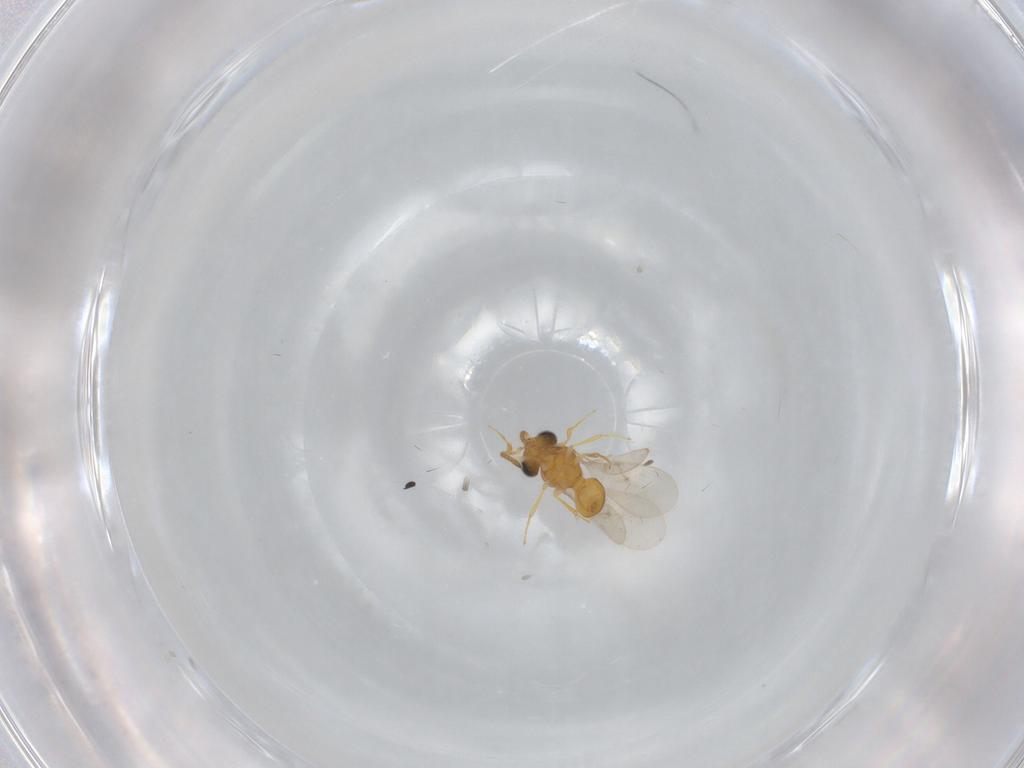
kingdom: Animalia
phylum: Arthropoda
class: Insecta
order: Hymenoptera
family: Scelionidae
